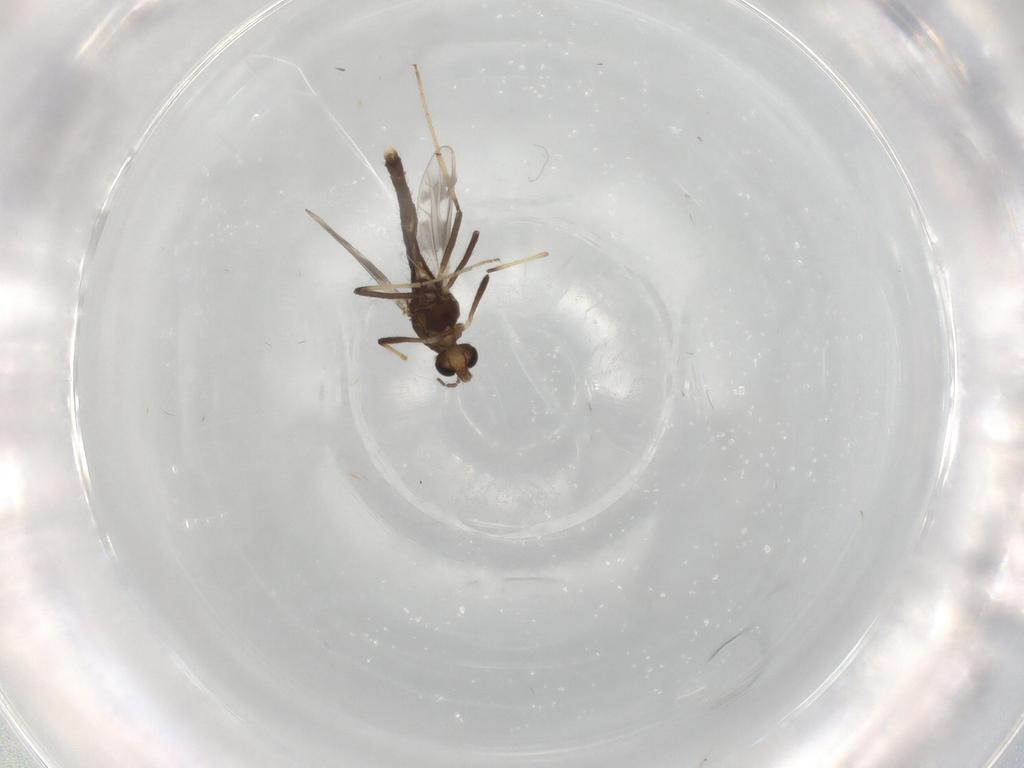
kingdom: Animalia
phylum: Arthropoda
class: Insecta
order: Diptera
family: Chironomidae
